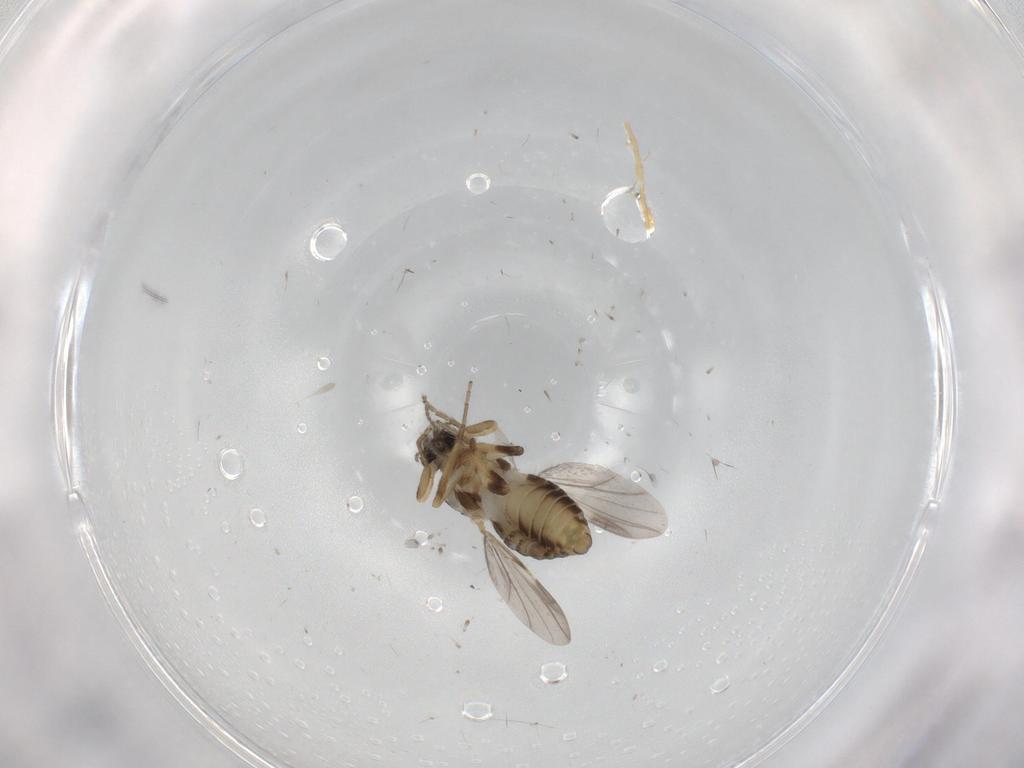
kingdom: Animalia
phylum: Arthropoda
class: Insecta
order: Diptera
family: Ceratopogonidae
